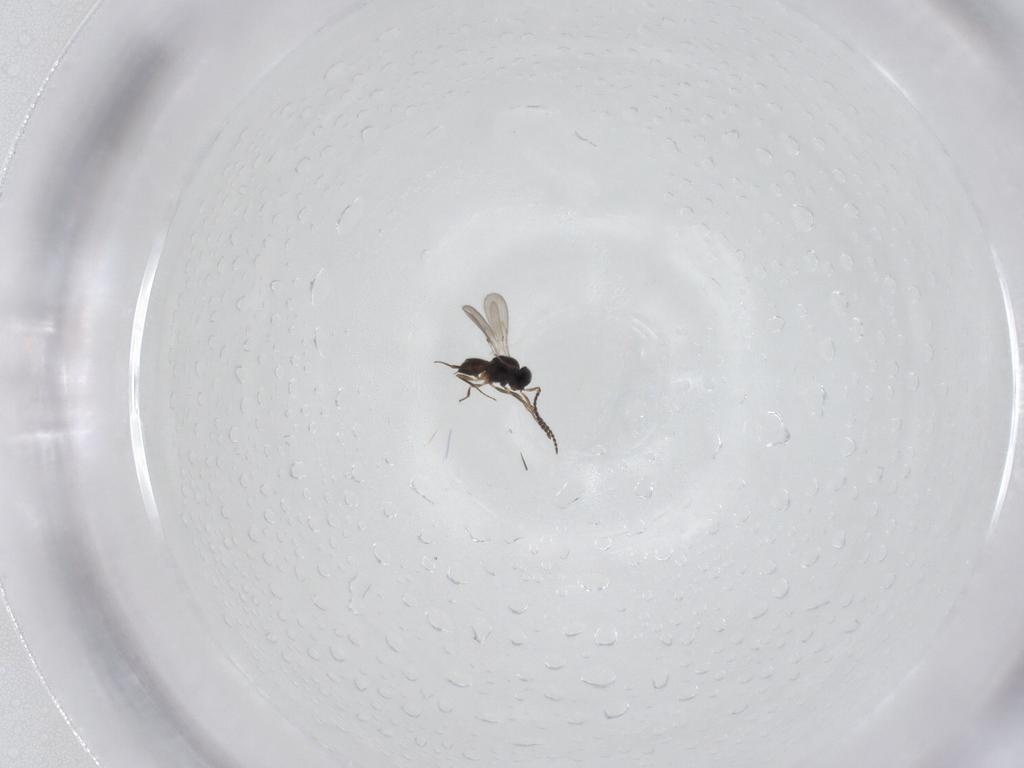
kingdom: Animalia
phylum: Arthropoda
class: Insecta
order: Hymenoptera
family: Scelionidae
